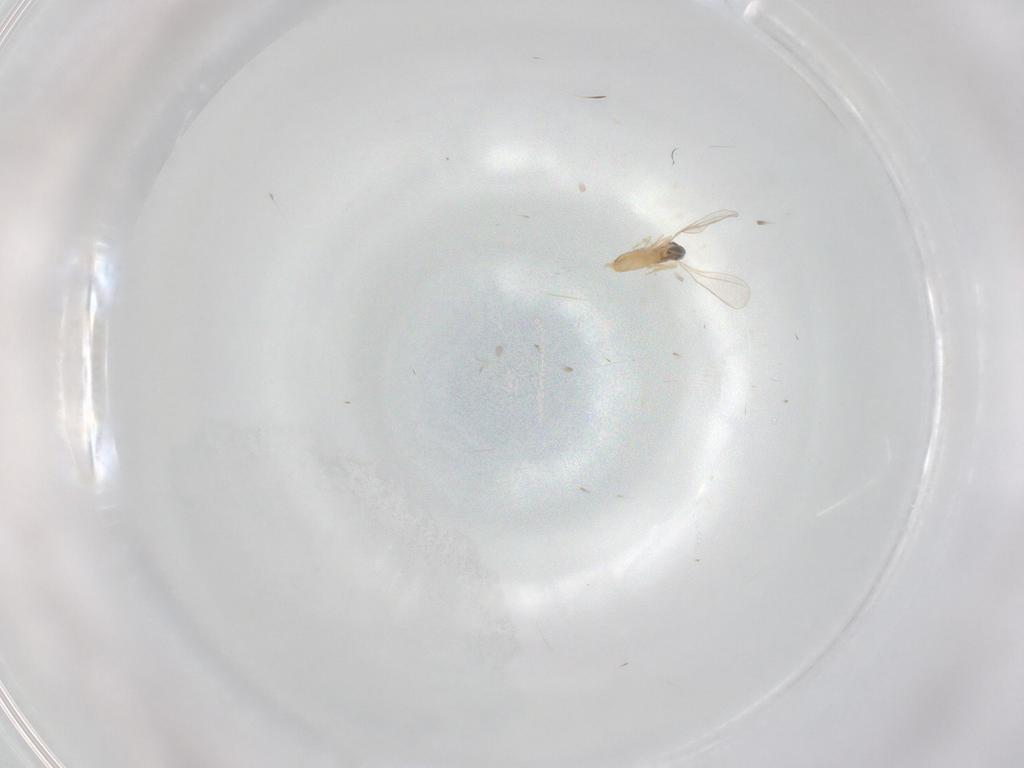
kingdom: Animalia
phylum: Arthropoda
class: Insecta
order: Diptera
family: Cecidomyiidae
